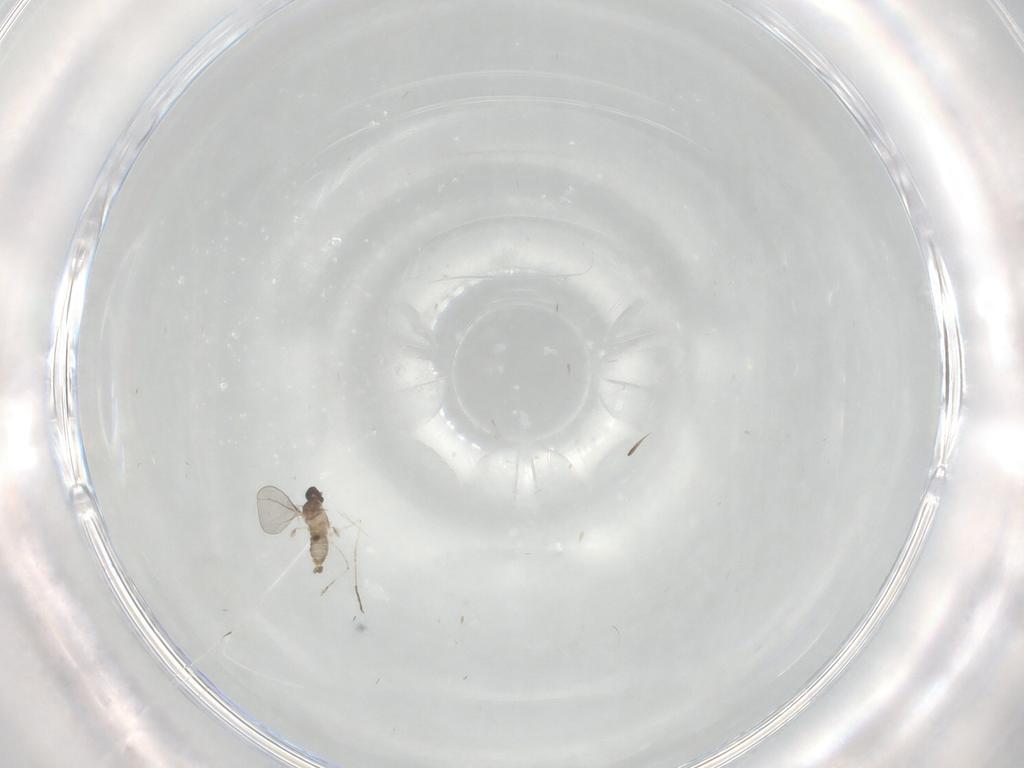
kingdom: Animalia
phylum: Arthropoda
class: Insecta
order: Diptera
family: Cecidomyiidae
